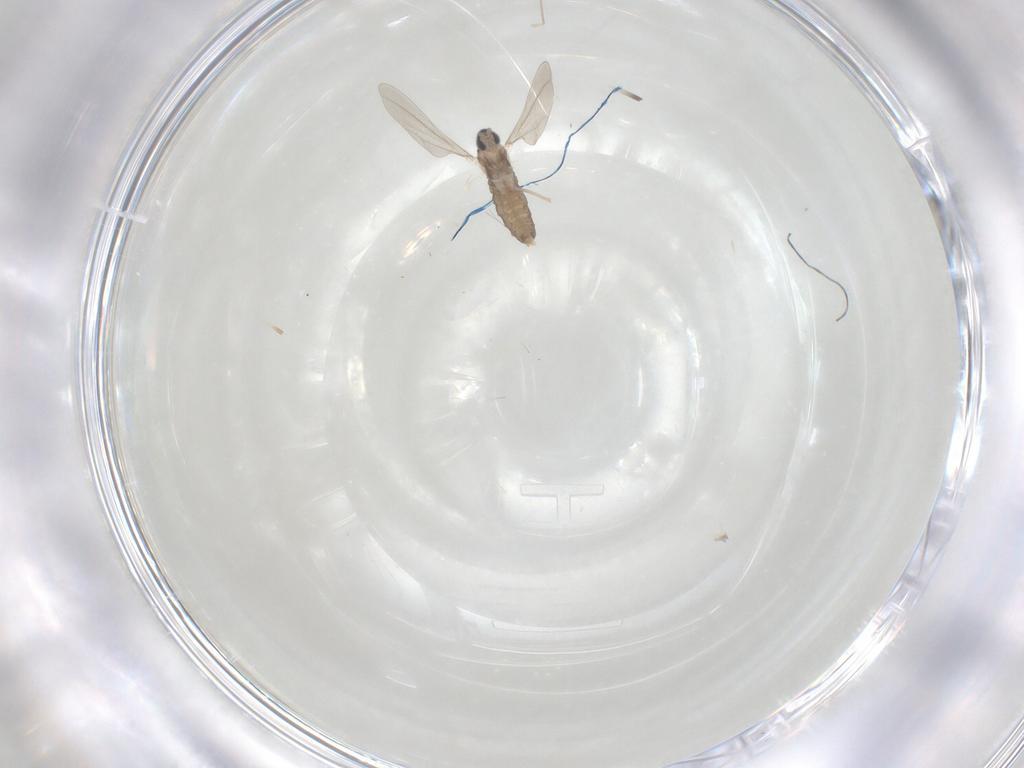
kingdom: Animalia
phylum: Arthropoda
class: Insecta
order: Diptera
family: Cecidomyiidae
